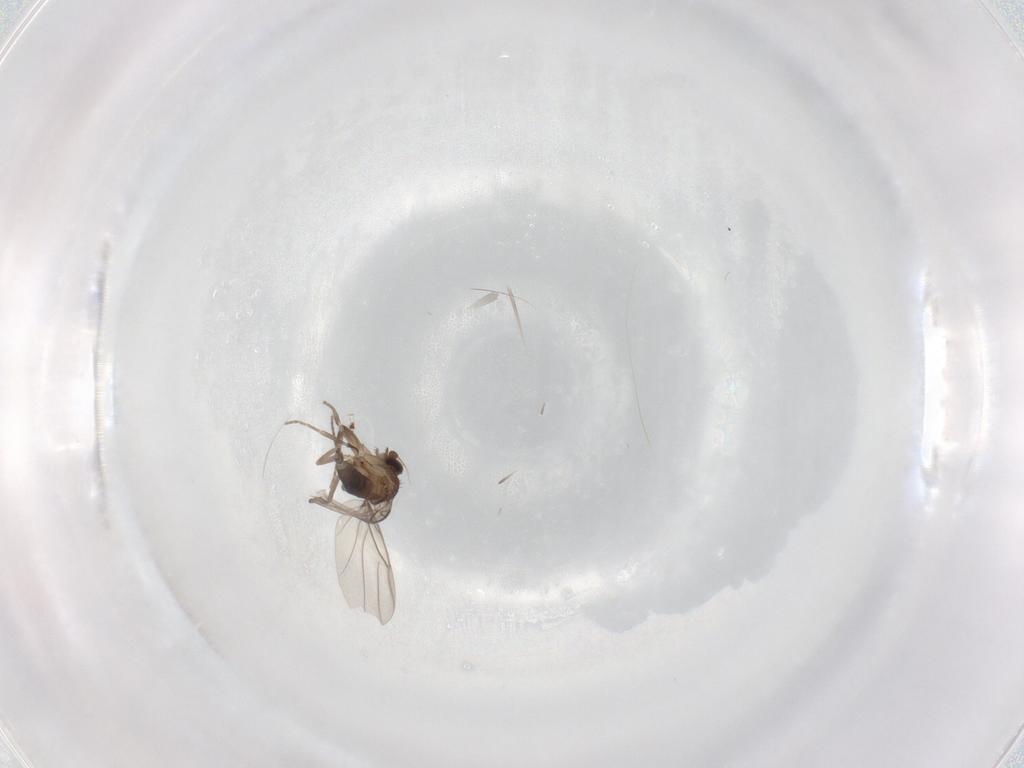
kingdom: Animalia
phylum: Arthropoda
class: Insecta
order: Diptera
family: Phoridae
